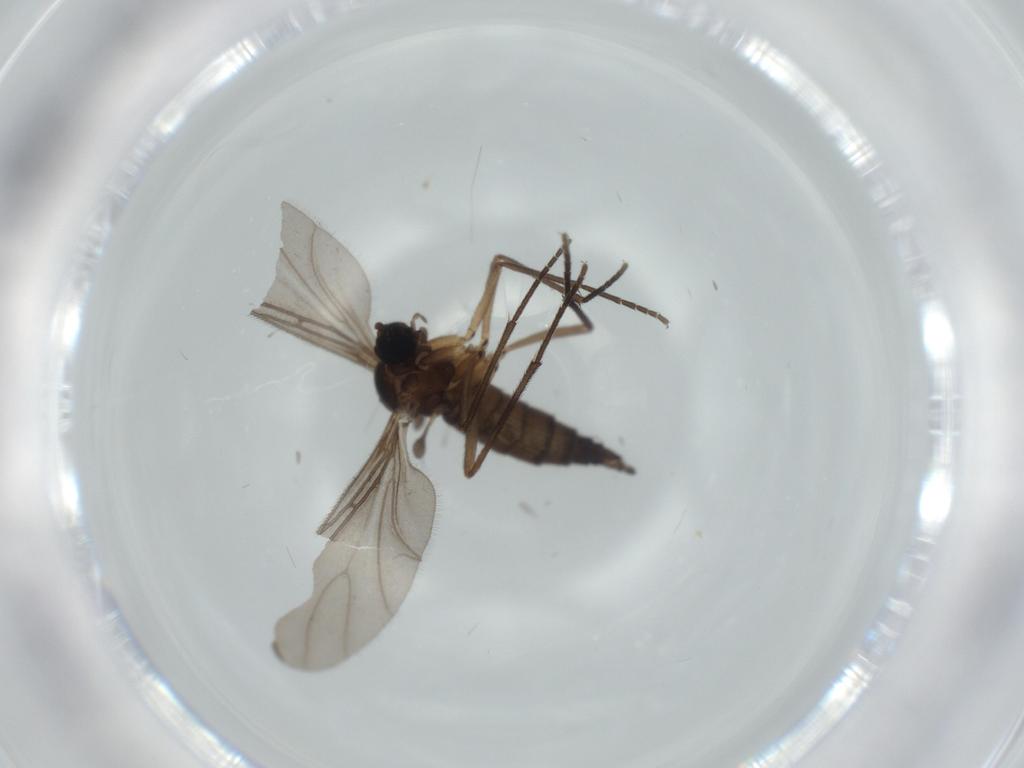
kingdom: Animalia
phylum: Arthropoda
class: Insecta
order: Diptera
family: Sciaridae
